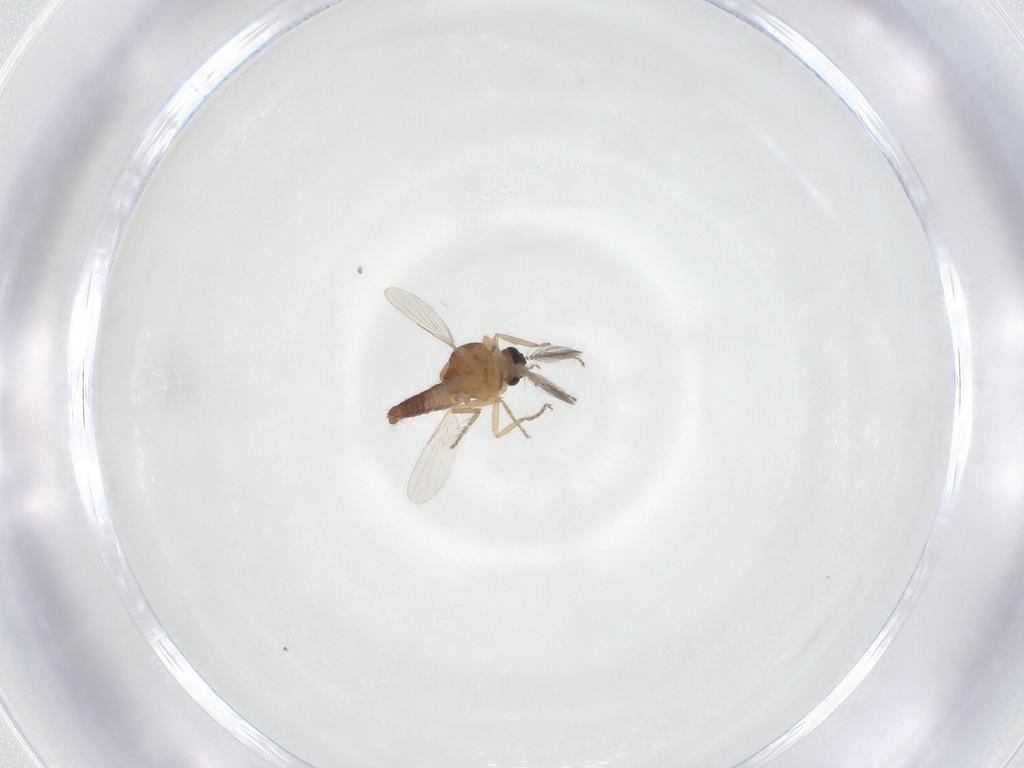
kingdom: Animalia
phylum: Arthropoda
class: Insecta
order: Diptera
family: Ceratopogonidae
